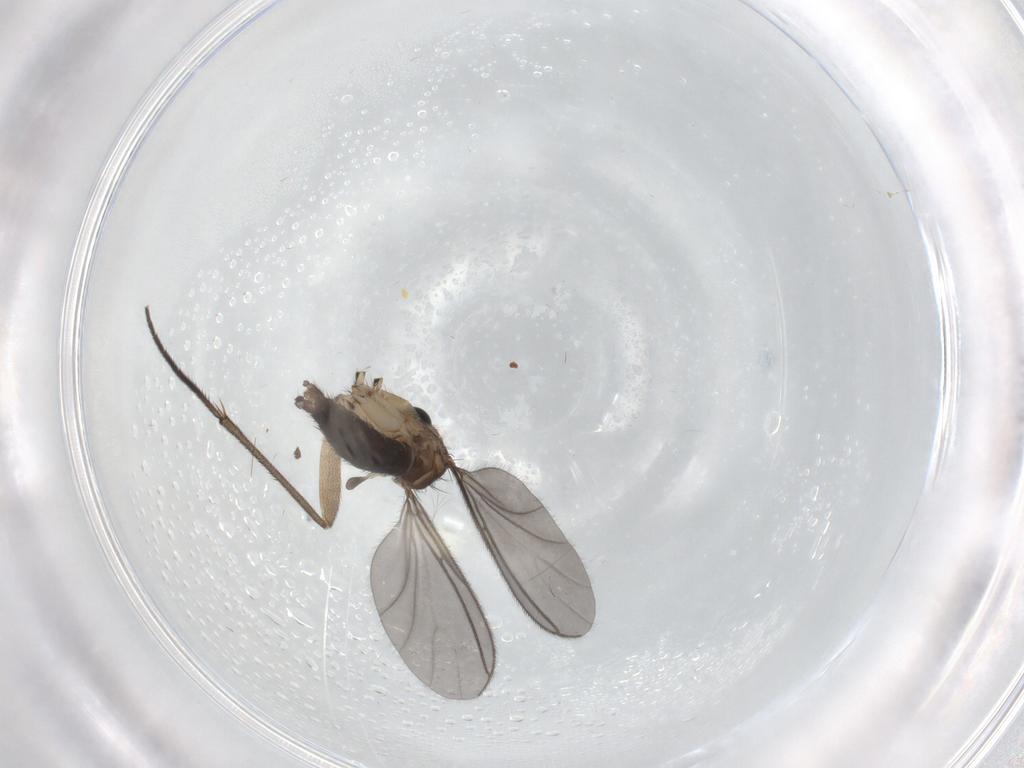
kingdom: Animalia
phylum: Arthropoda
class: Insecta
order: Diptera
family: Sciaridae
